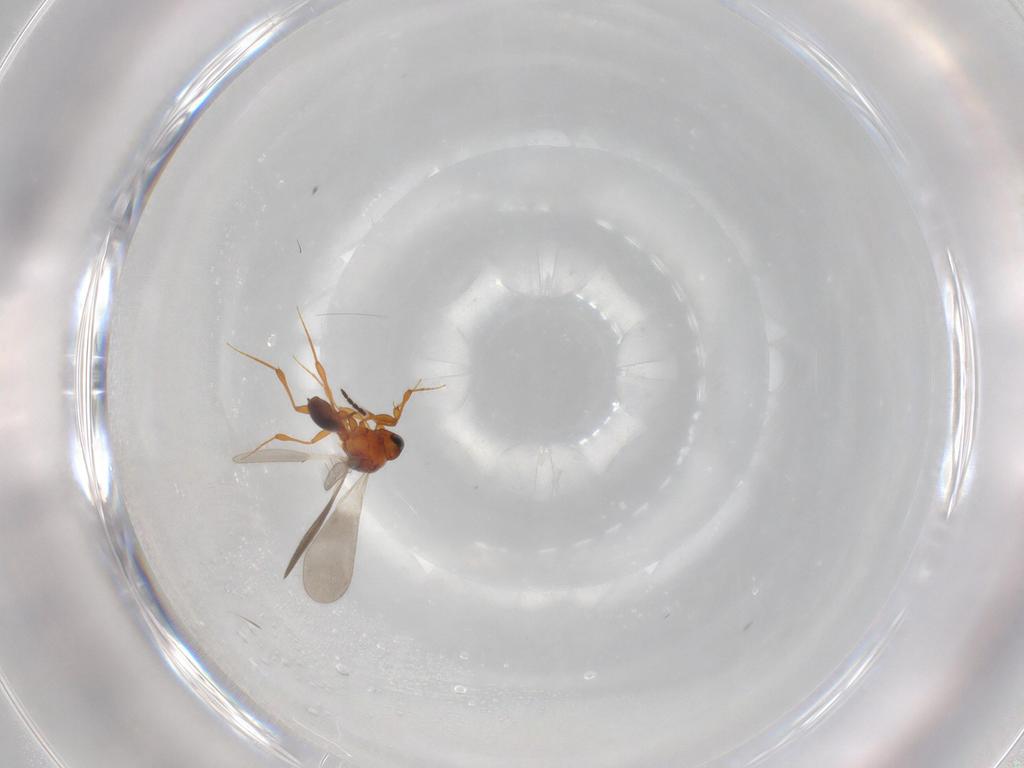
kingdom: Animalia
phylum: Arthropoda
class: Insecta
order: Hymenoptera
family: Platygastridae
